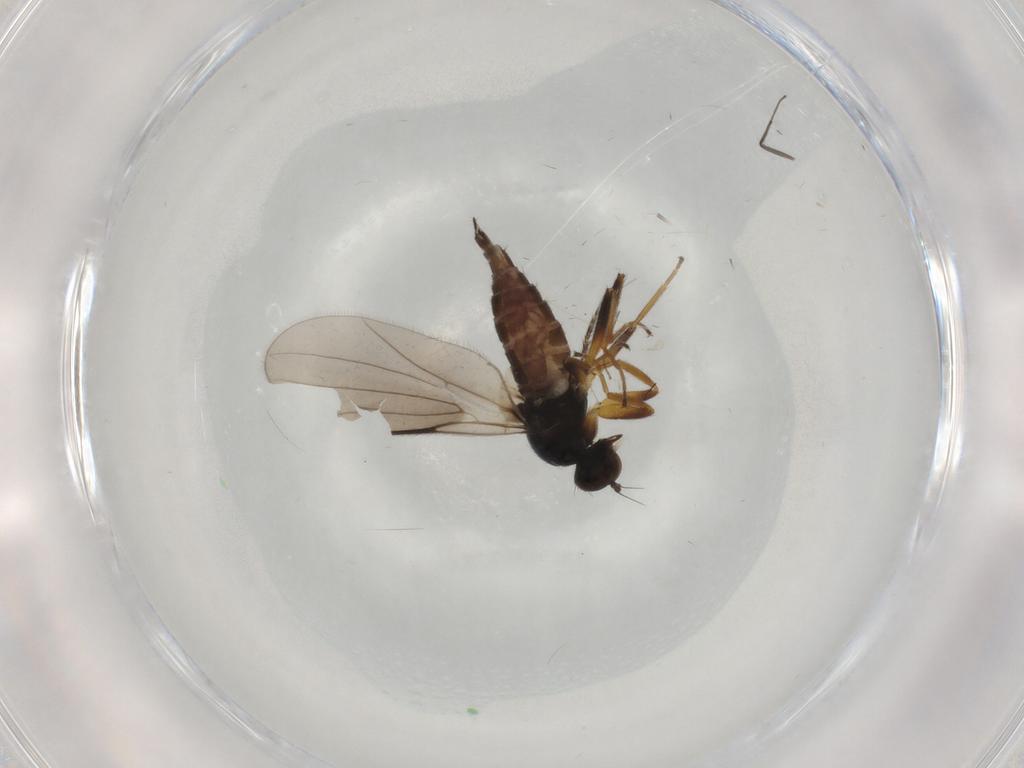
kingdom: Animalia
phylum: Arthropoda
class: Insecta
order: Diptera
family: Hybotidae
